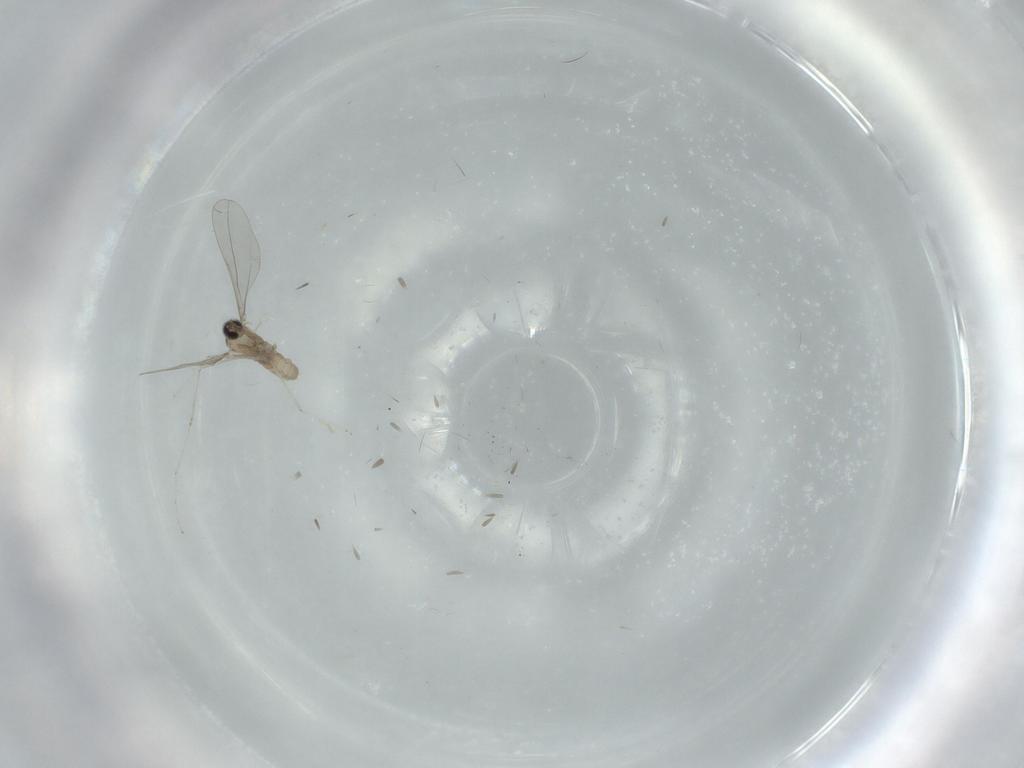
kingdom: Animalia
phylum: Arthropoda
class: Insecta
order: Diptera
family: Cecidomyiidae
